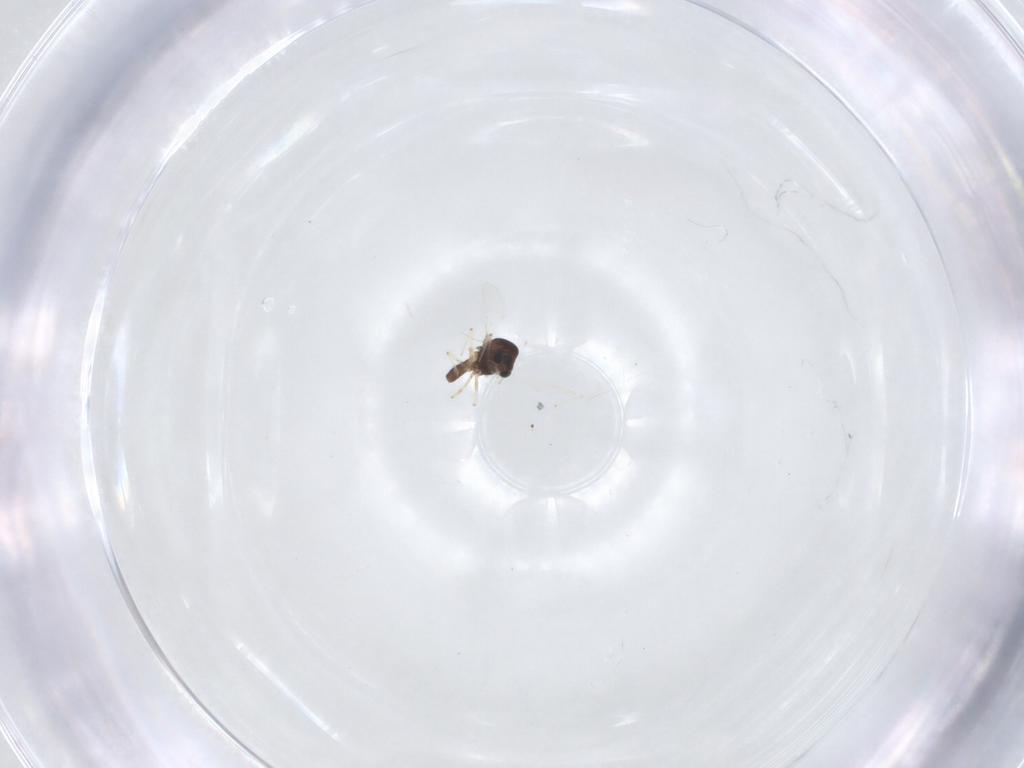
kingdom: Animalia
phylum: Arthropoda
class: Insecta
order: Diptera
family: Chironomidae
